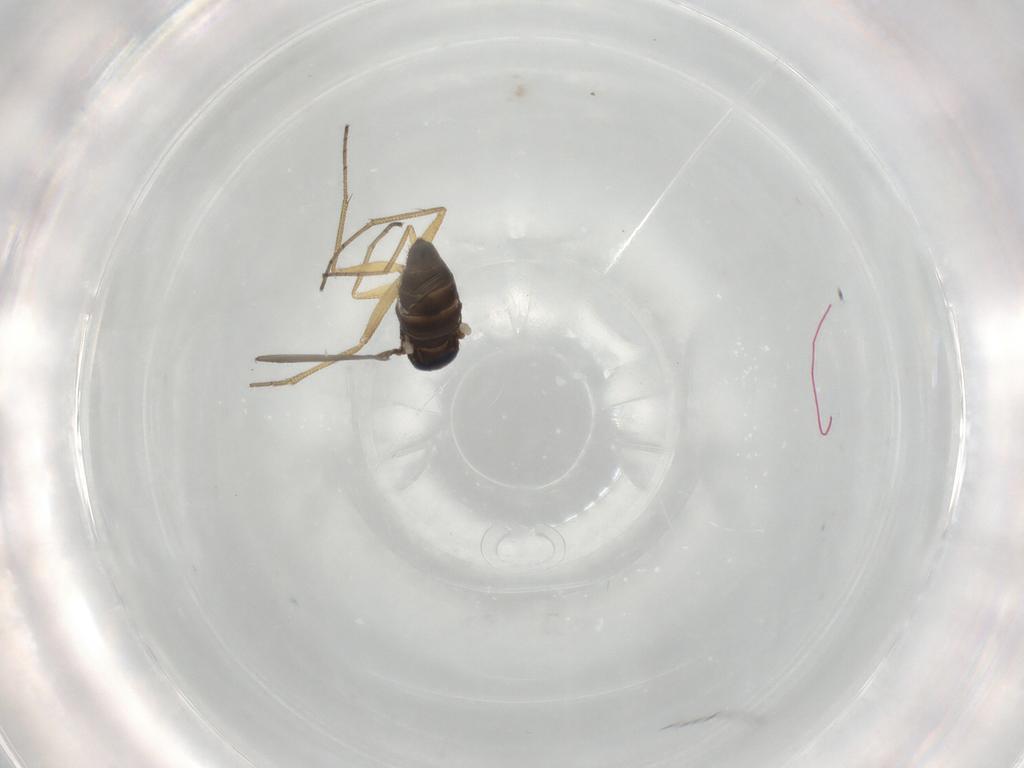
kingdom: Animalia
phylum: Arthropoda
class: Insecta
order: Diptera
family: Dolichopodidae
